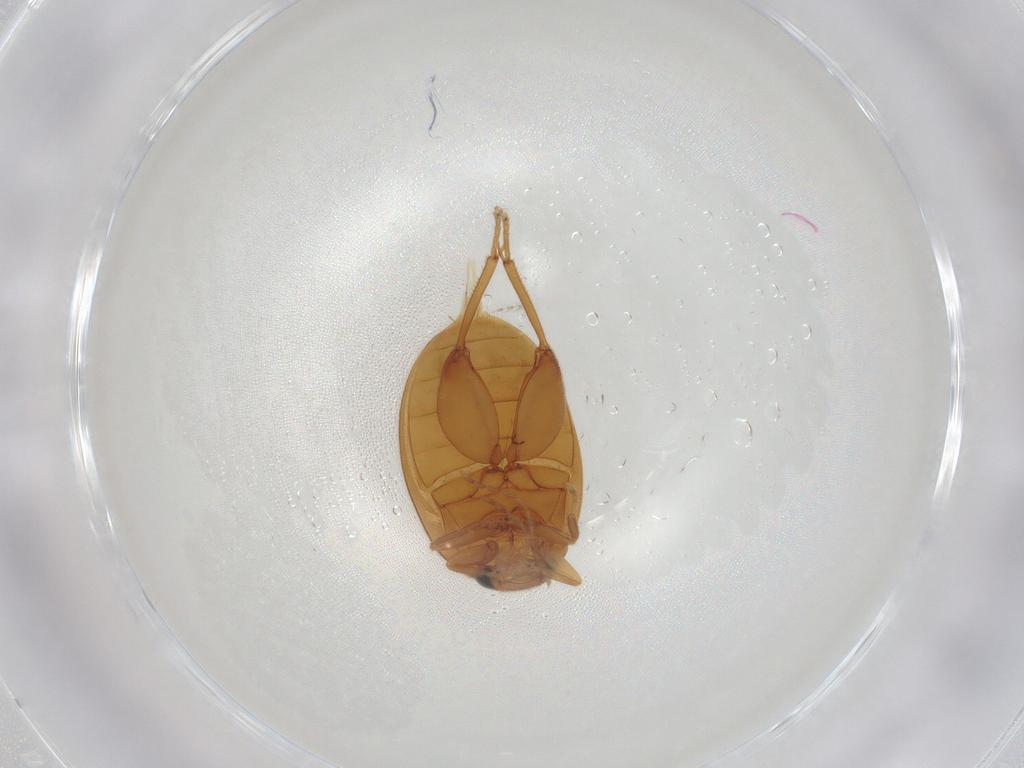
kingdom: Animalia
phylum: Arthropoda
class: Insecta
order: Coleoptera
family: Scirtidae
